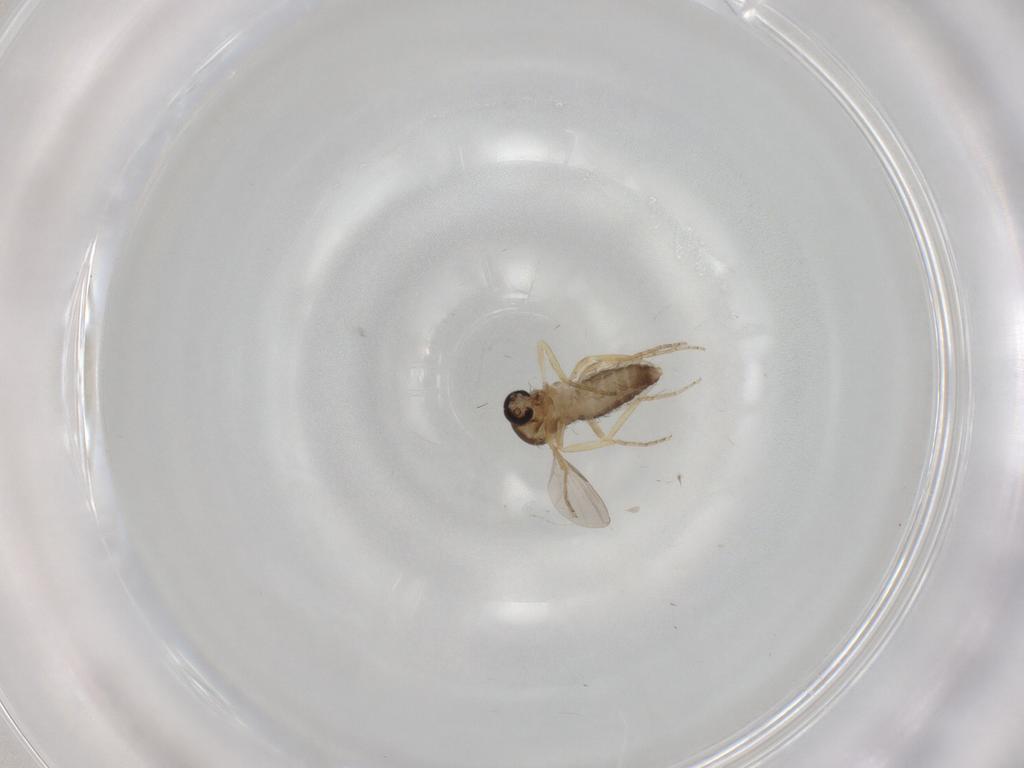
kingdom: Animalia
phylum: Arthropoda
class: Insecta
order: Diptera
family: Ceratopogonidae
